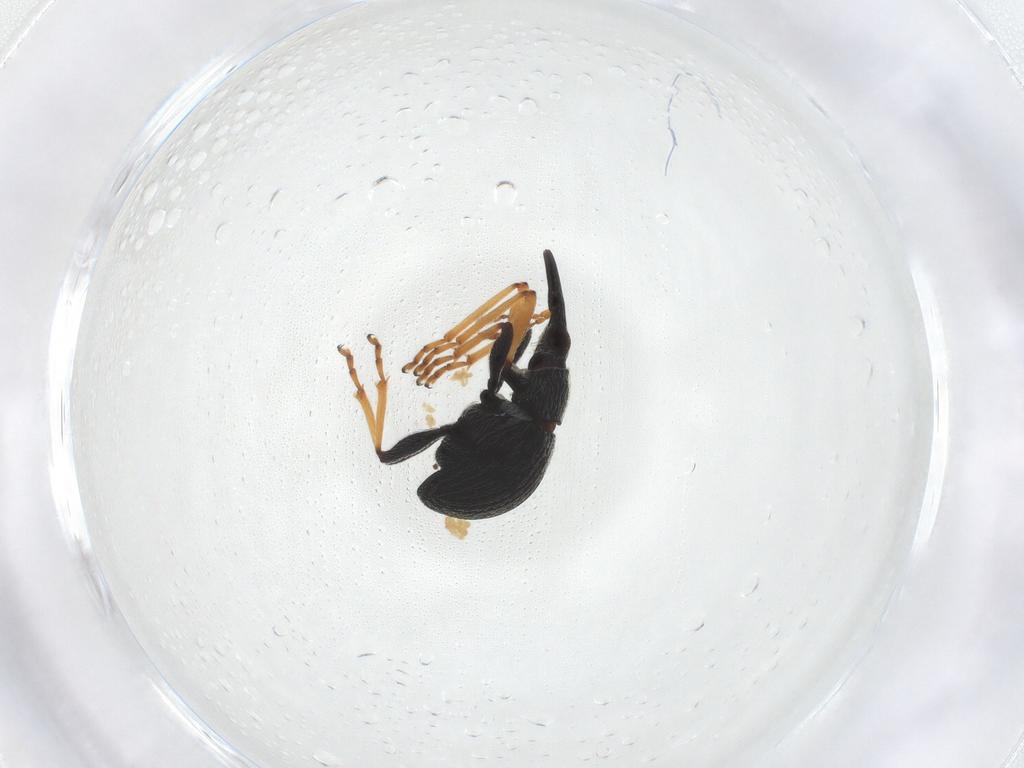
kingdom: Animalia
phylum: Arthropoda
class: Insecta
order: Coleoptera
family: Brentidae
